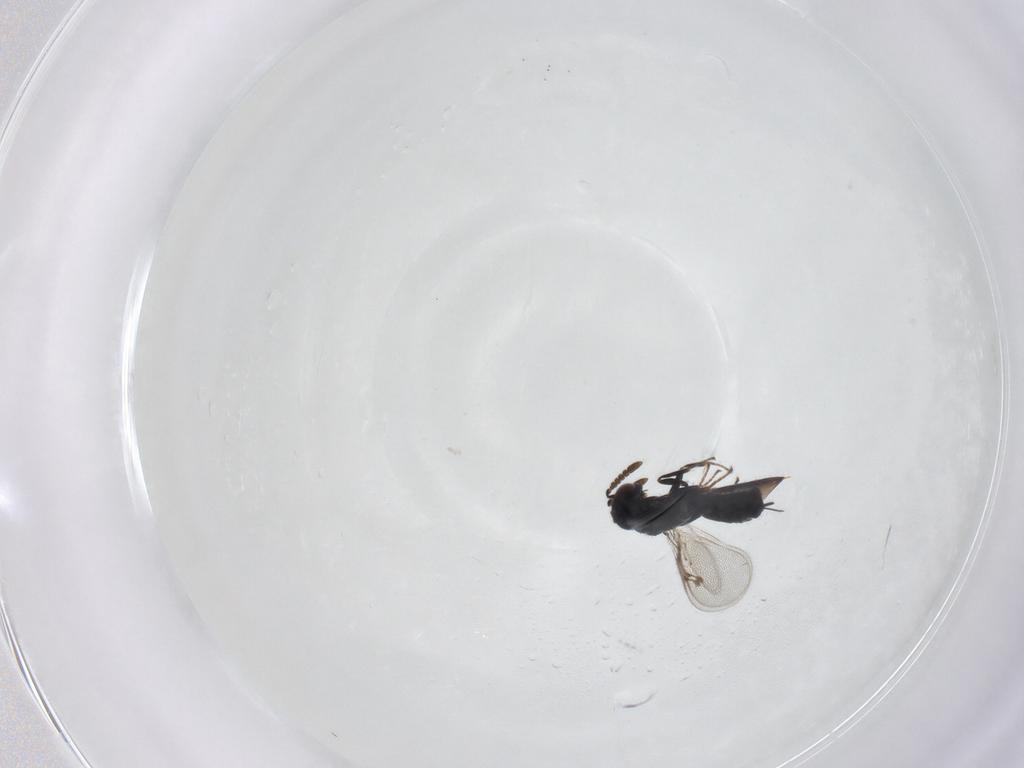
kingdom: Animalia
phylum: Arthropoda
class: Insecta
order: Hymenoptera
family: Pirenidae
